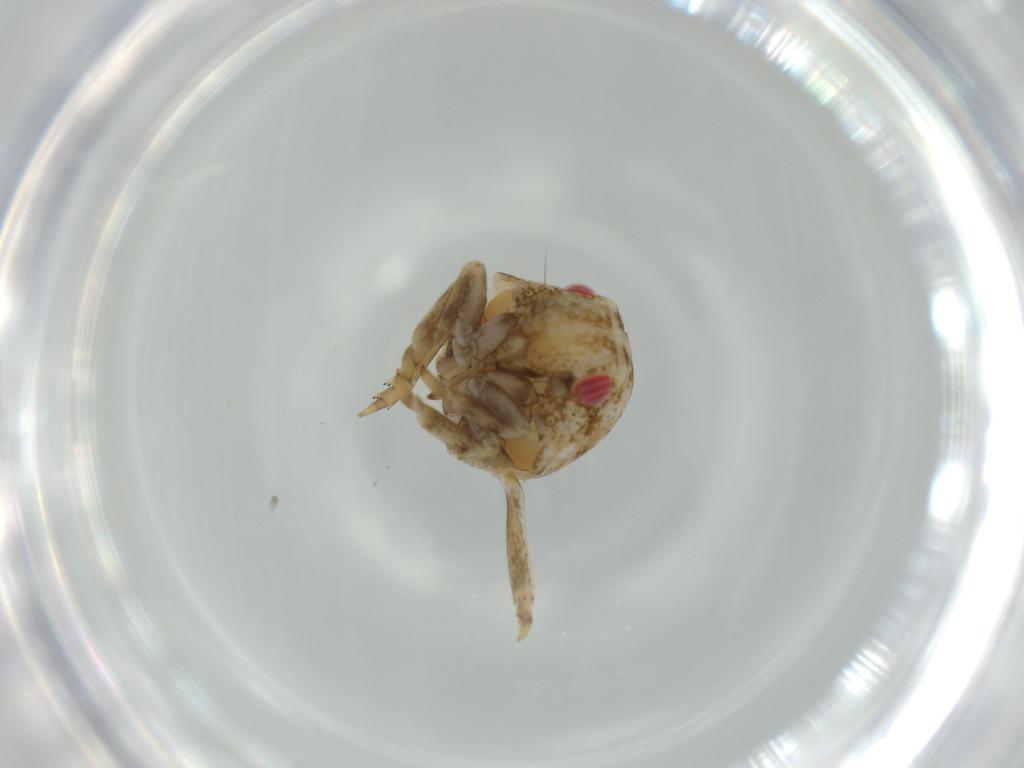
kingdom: Animalia
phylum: Arthropoda
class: Insecta
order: Hemiptera
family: Acanaloniidae
